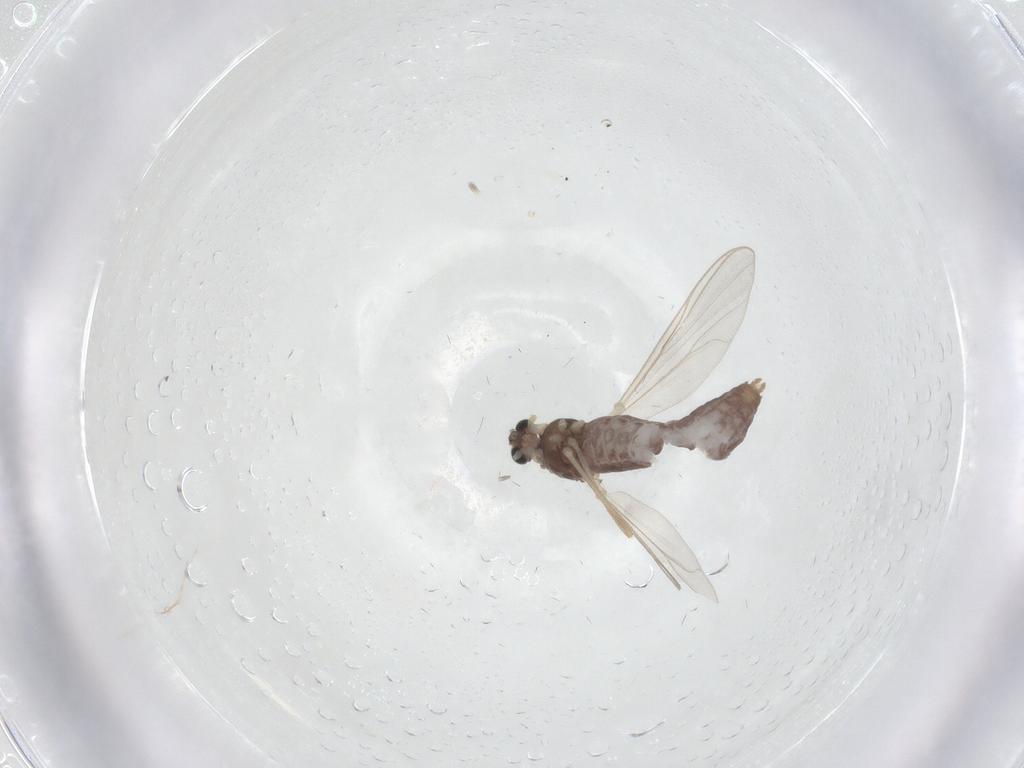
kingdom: Animalia
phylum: Arthropoda
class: Insecta
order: Diptera
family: Chironomidae
